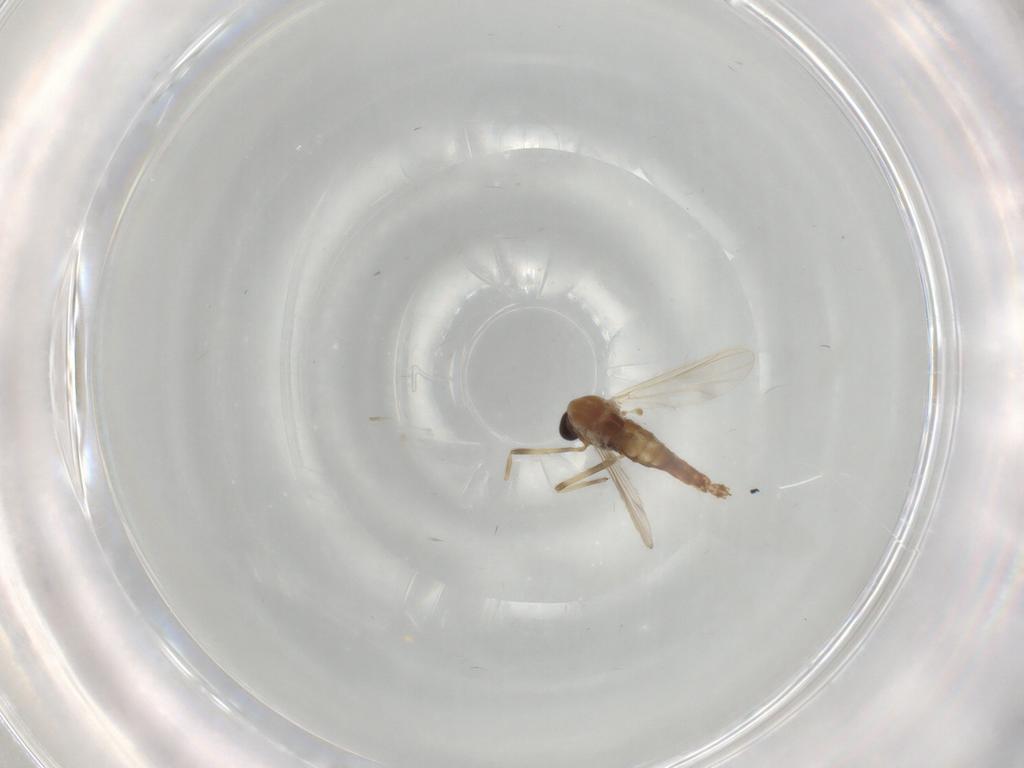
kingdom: Animalia
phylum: Arthropoda
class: Insecta
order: Diptera
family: Chironomidae
